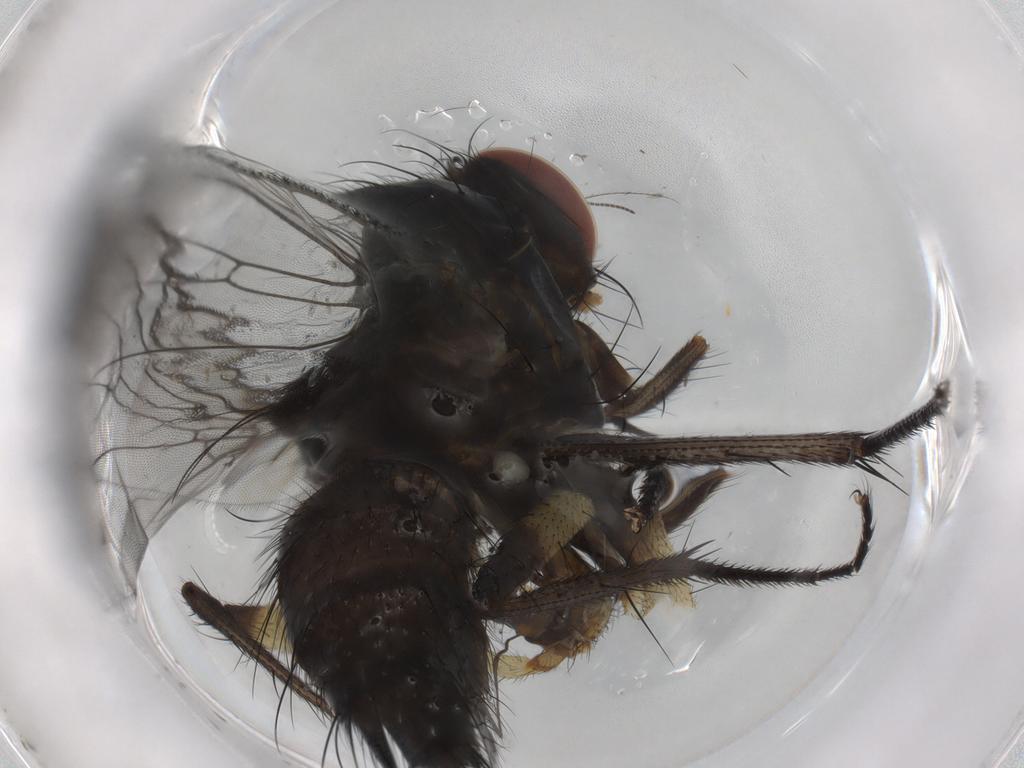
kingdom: Animalia
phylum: Arthropoda
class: Insecta
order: Diptera
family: Anthomyiidae
